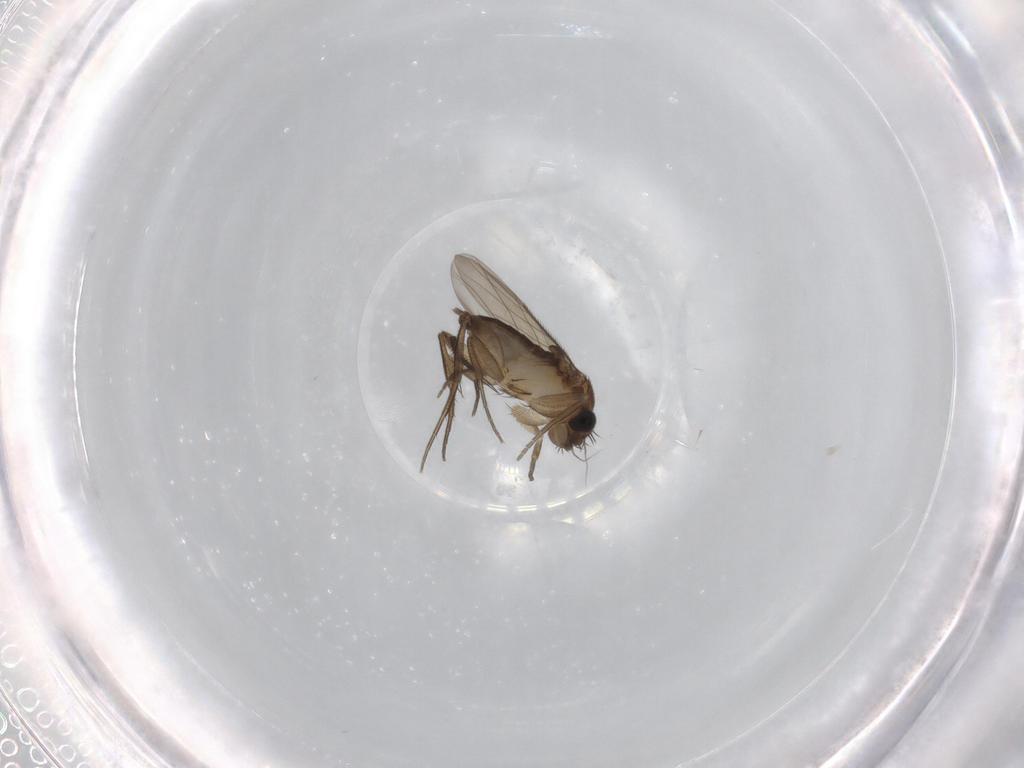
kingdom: Animalia
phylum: Arthropoda
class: Insecta
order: Diptera
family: Phoridae
